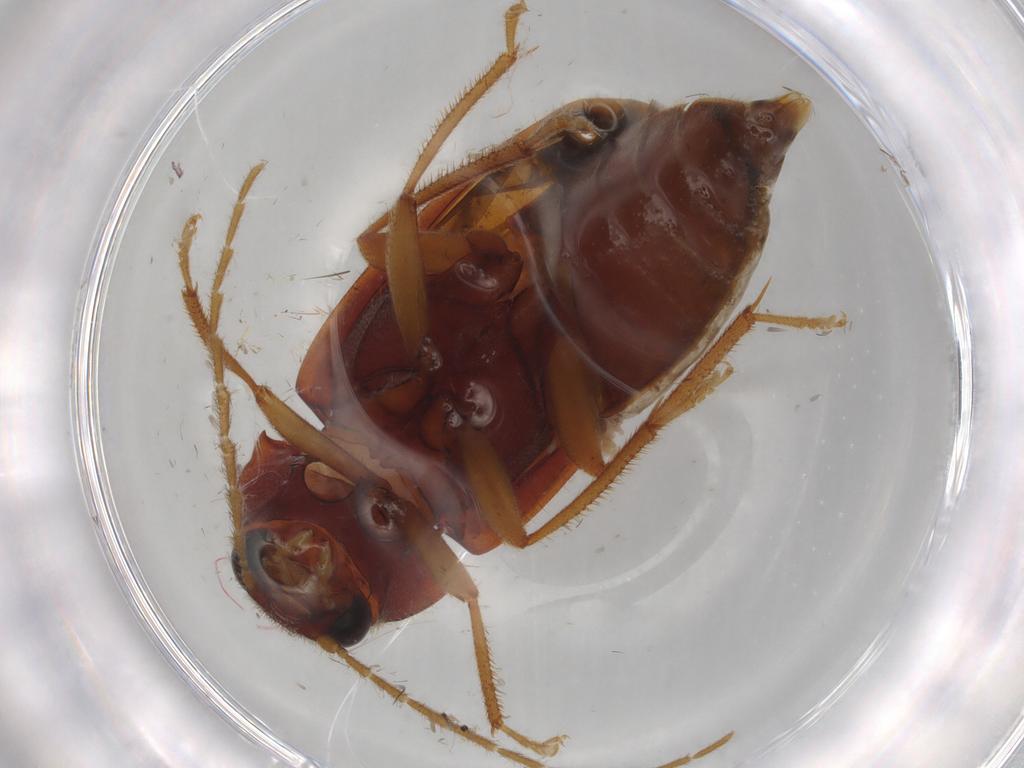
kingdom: Animalia
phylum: Arthropoda
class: Insecta
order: Coleoptera
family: Ptilodactylidae
